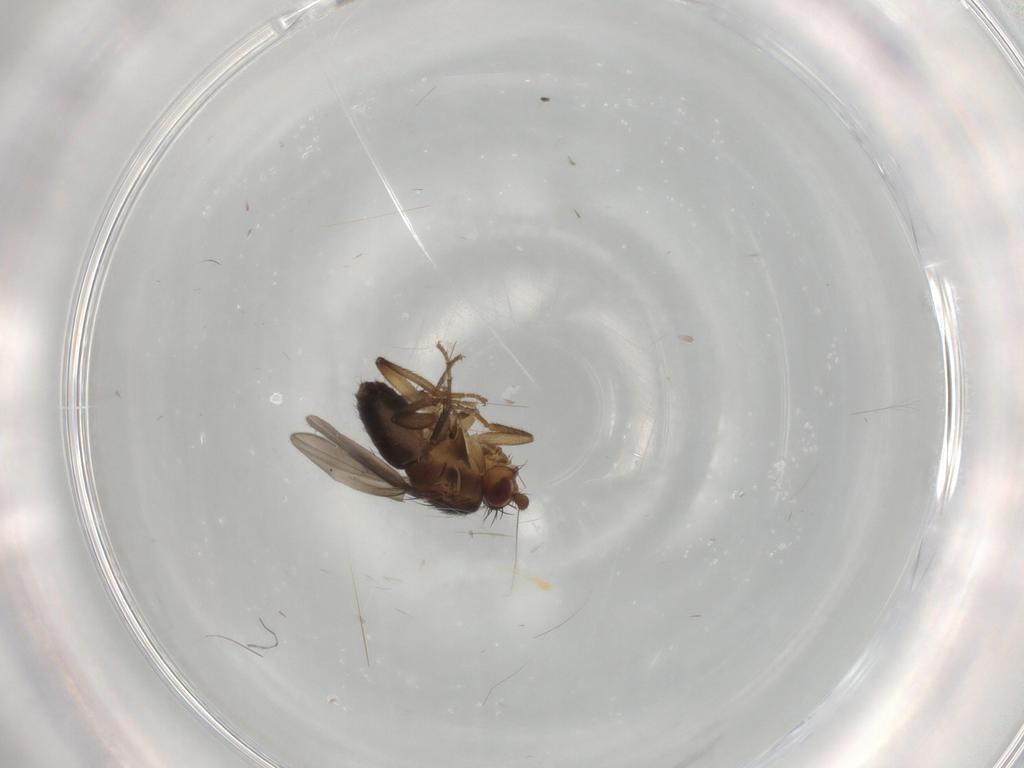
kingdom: Animalia
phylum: Arthropoda
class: Insecta
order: Diptera
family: Sphaeroceridae
